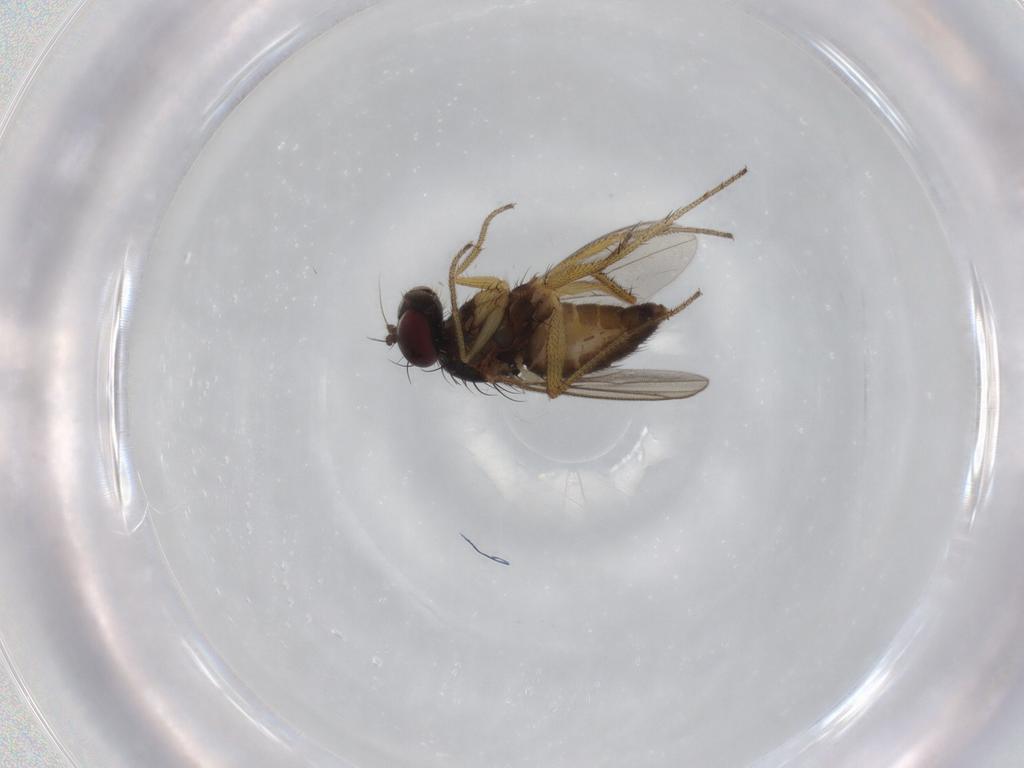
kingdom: Animalia
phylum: Arthropoda
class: Insecta
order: Diptera
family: Dolichopodidae
